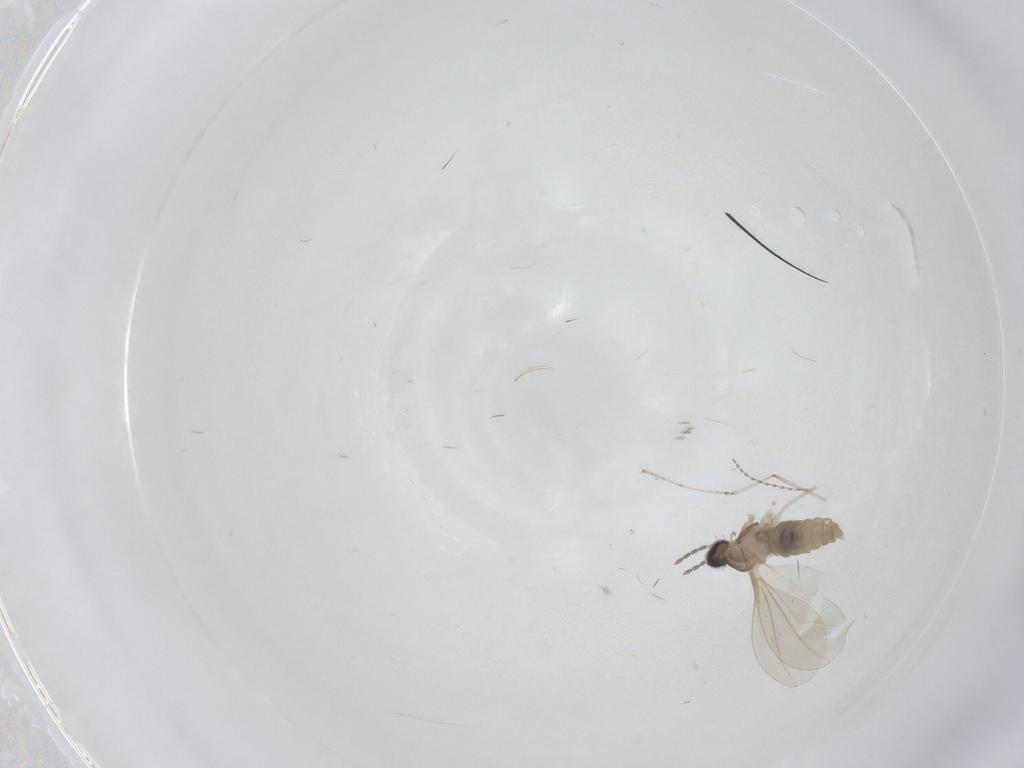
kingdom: Animalia
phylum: Arthropoda
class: Insecta
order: Diptera
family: Cecidomyiidae
